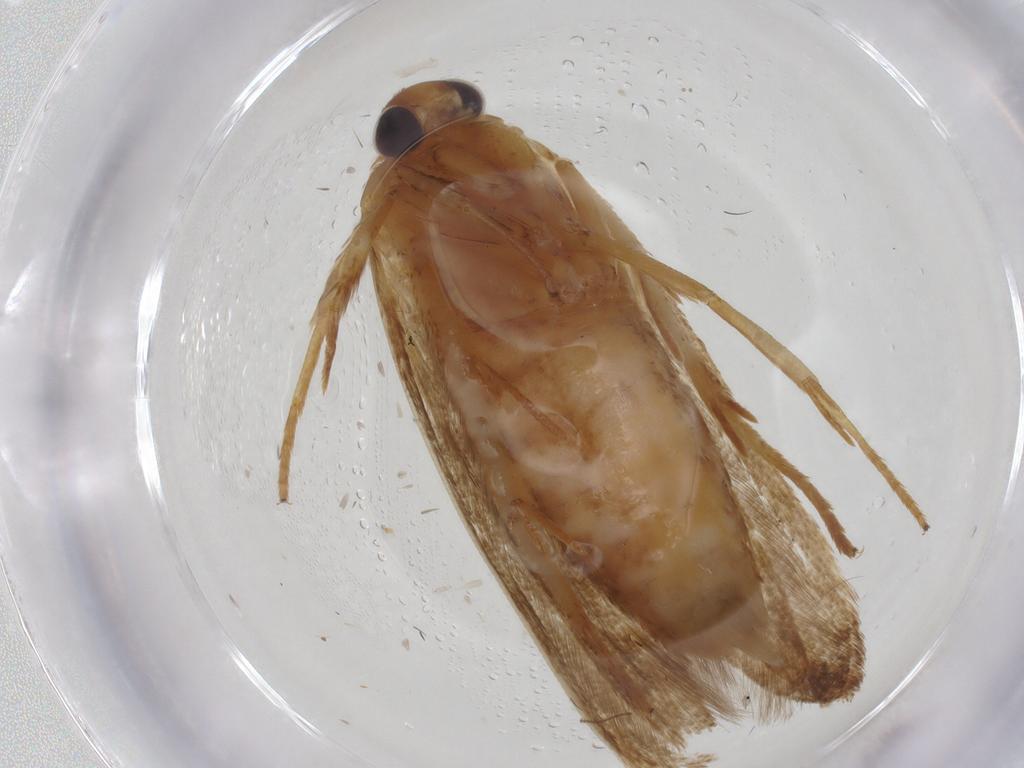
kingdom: Animalia
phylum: Arthropoda
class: Insecta
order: Lepidoptera
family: Blastobasidae
